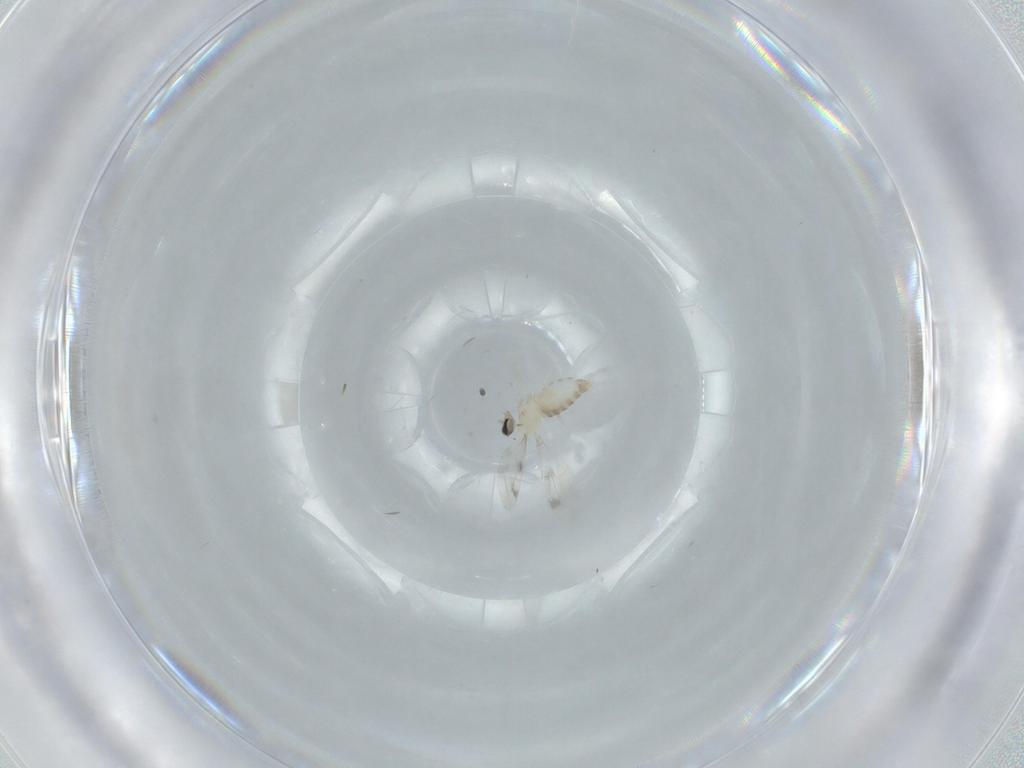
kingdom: Animalia
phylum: Arthropoda
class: Insecta
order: Diptera
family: Cecidomyiidae
